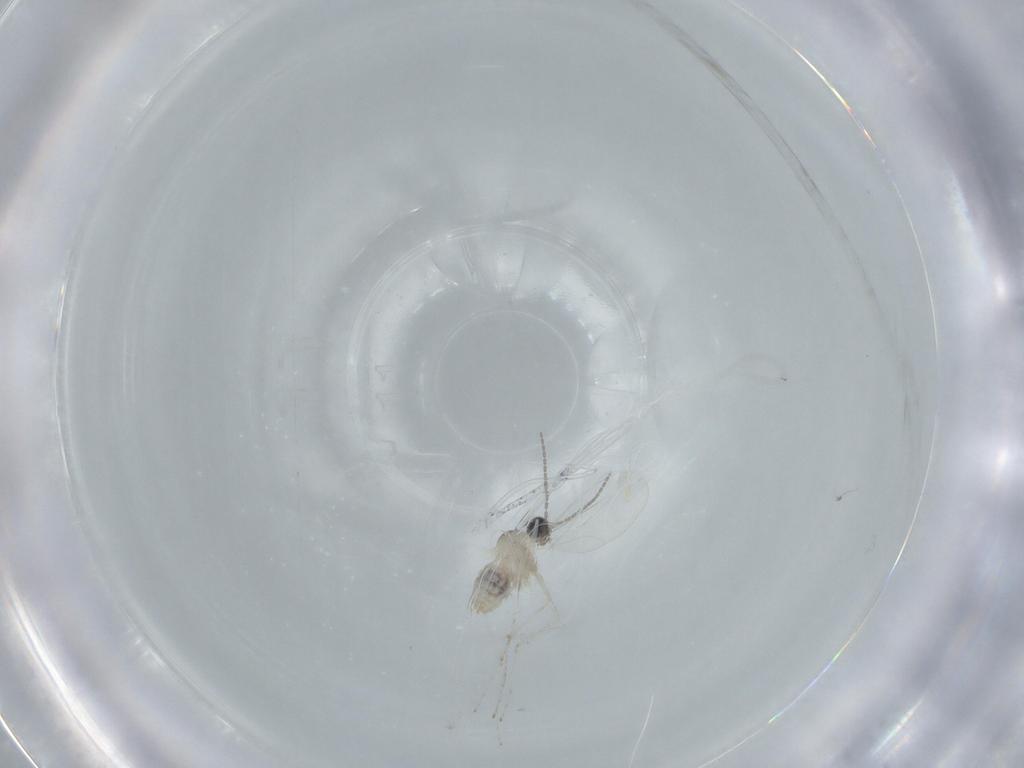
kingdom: Animalia
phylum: Arthropoda
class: Insecta
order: Diptera
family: Cecidomyiidae
